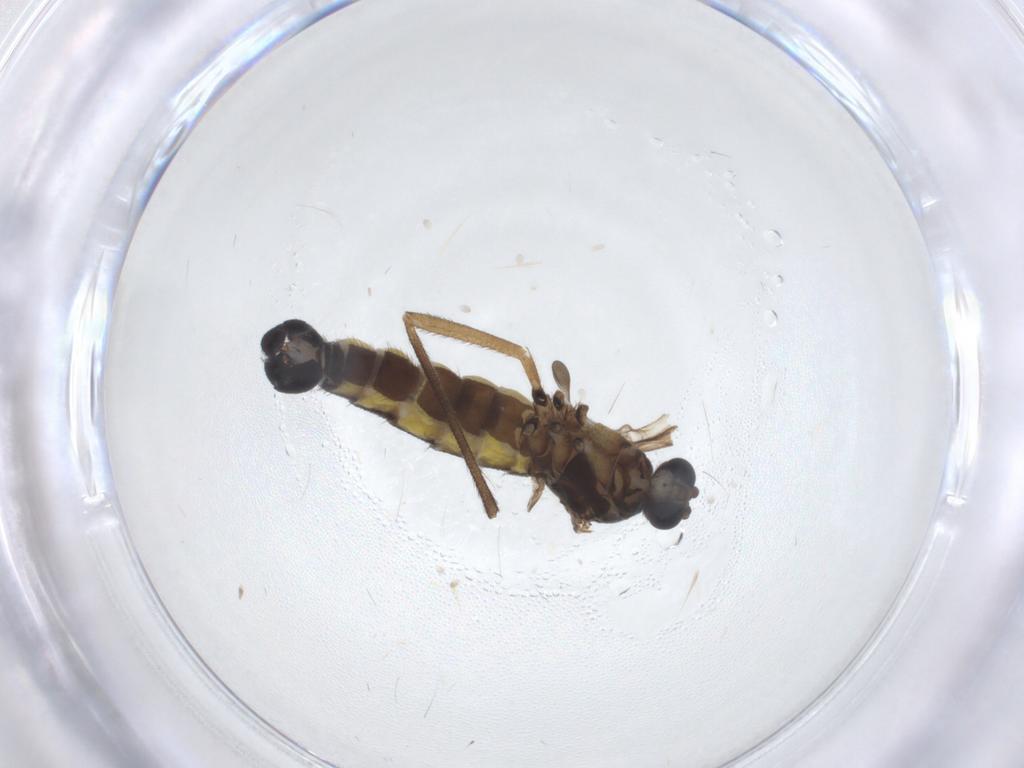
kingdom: Animalia
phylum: Arthropoda
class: Insecta
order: Diptera
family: Sciaridae
